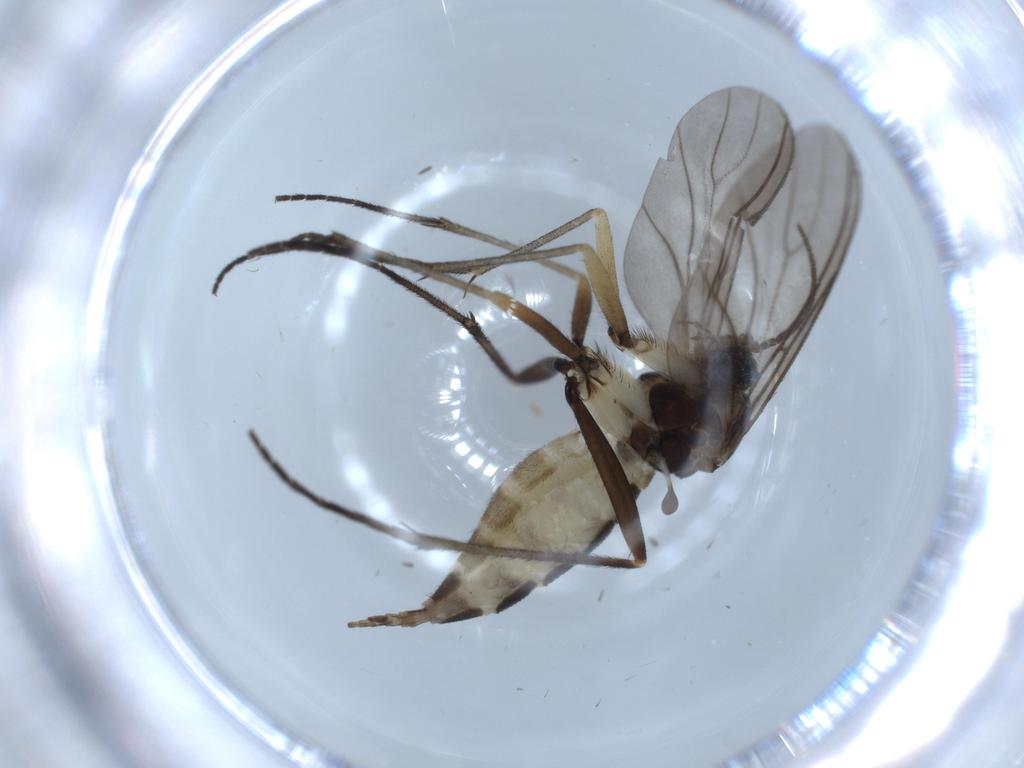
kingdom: Animalia
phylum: Arthropoda
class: Insecta
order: Diptera
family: Sciaridae
